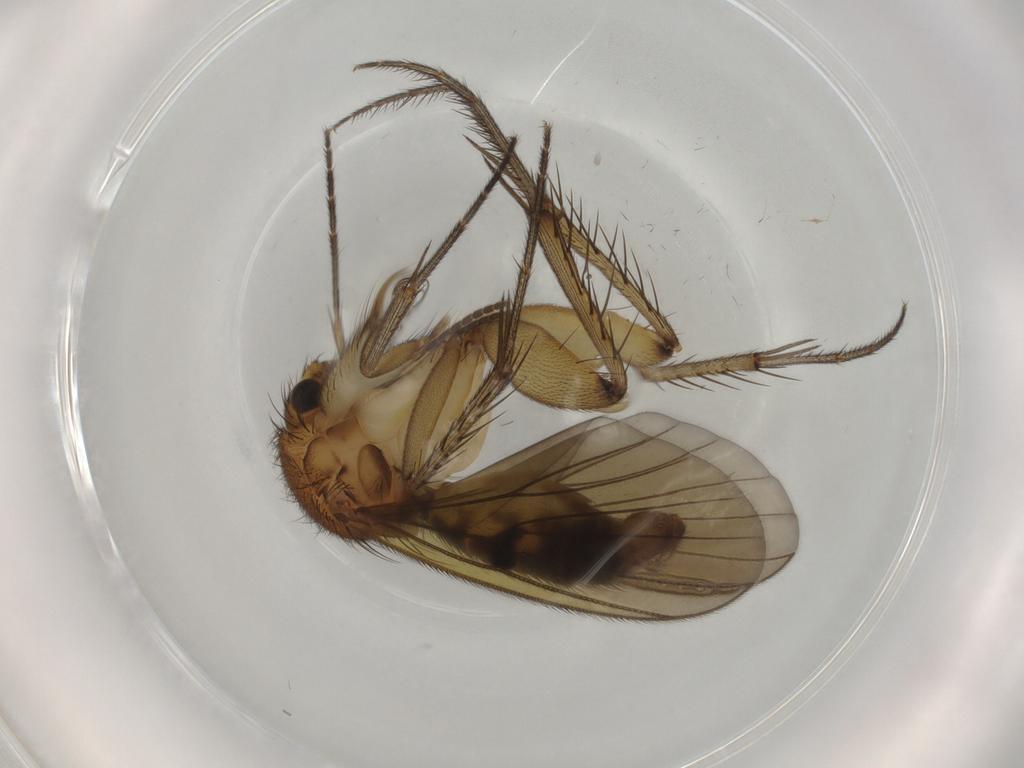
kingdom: Animalia
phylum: Arthropoda
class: Insecta
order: Diptera
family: Mycetophilidae
